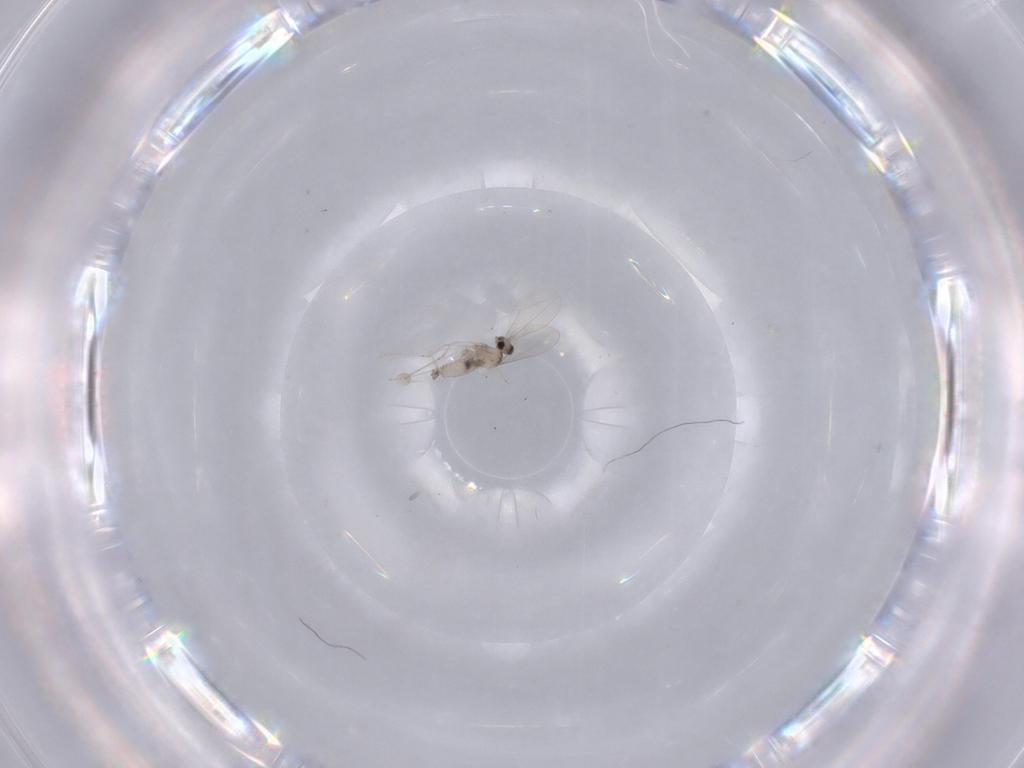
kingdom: Animalia
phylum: Arthropoda
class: Insecta
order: Diptera
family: Cecidomyiidae
